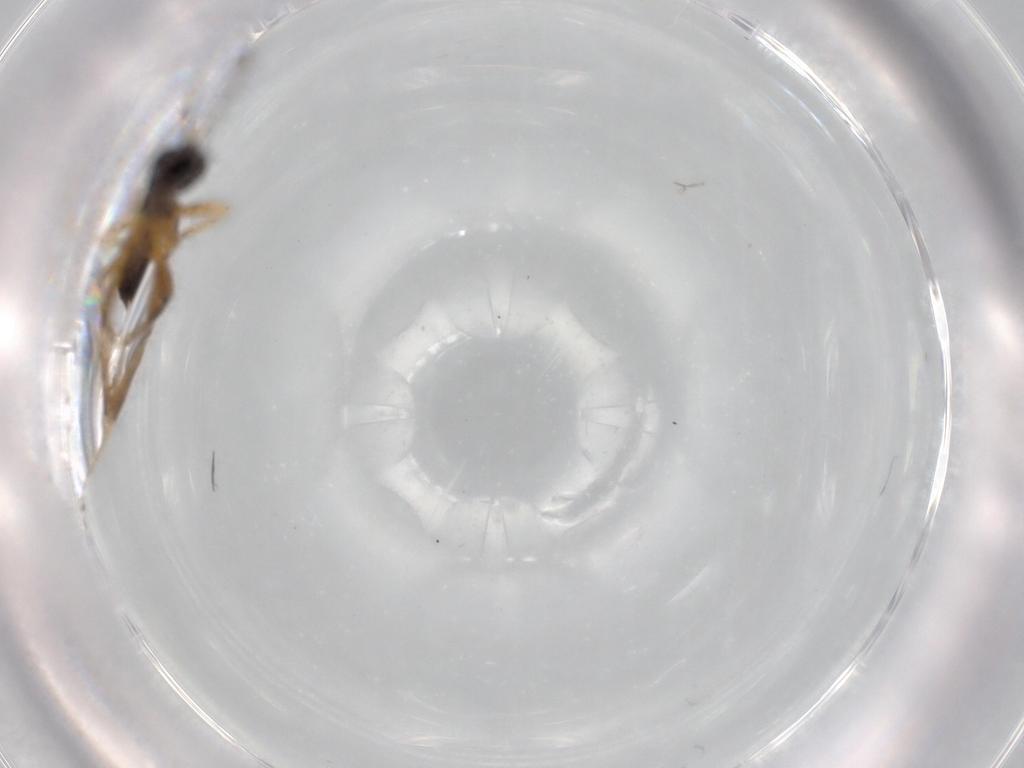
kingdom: Animalia
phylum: Arthropoda
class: Insecta
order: Hymenoptera
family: Ichneumonidae
